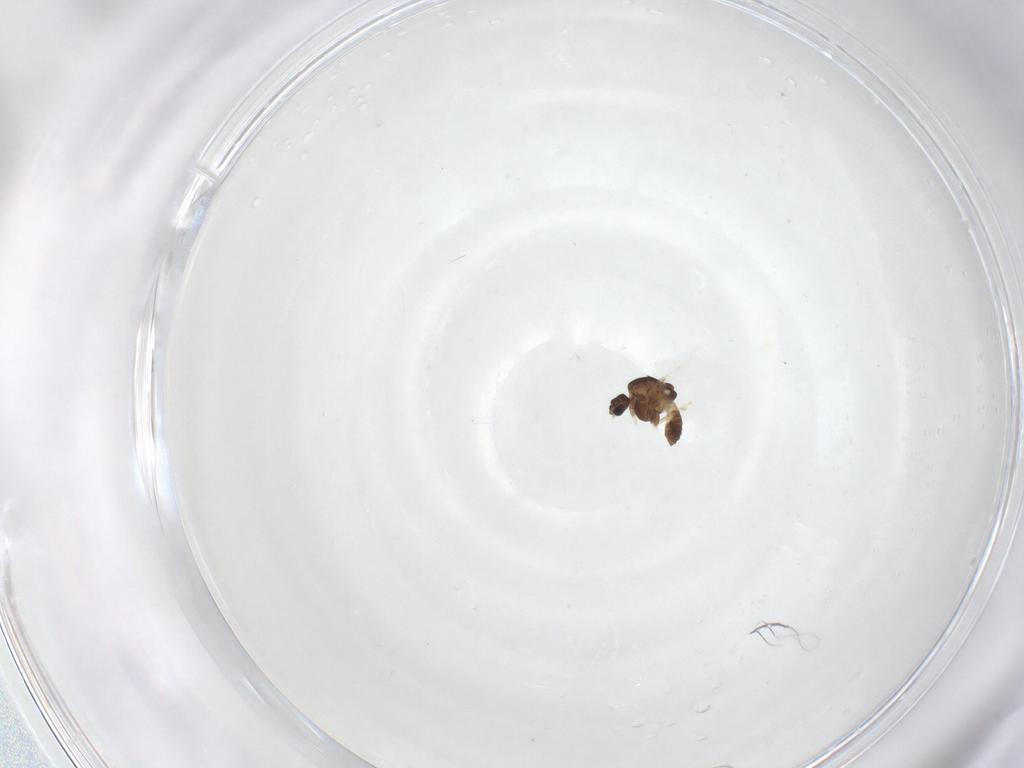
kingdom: Animalia
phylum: Arthropoda
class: Insecta
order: Diptera
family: Chironomidae
